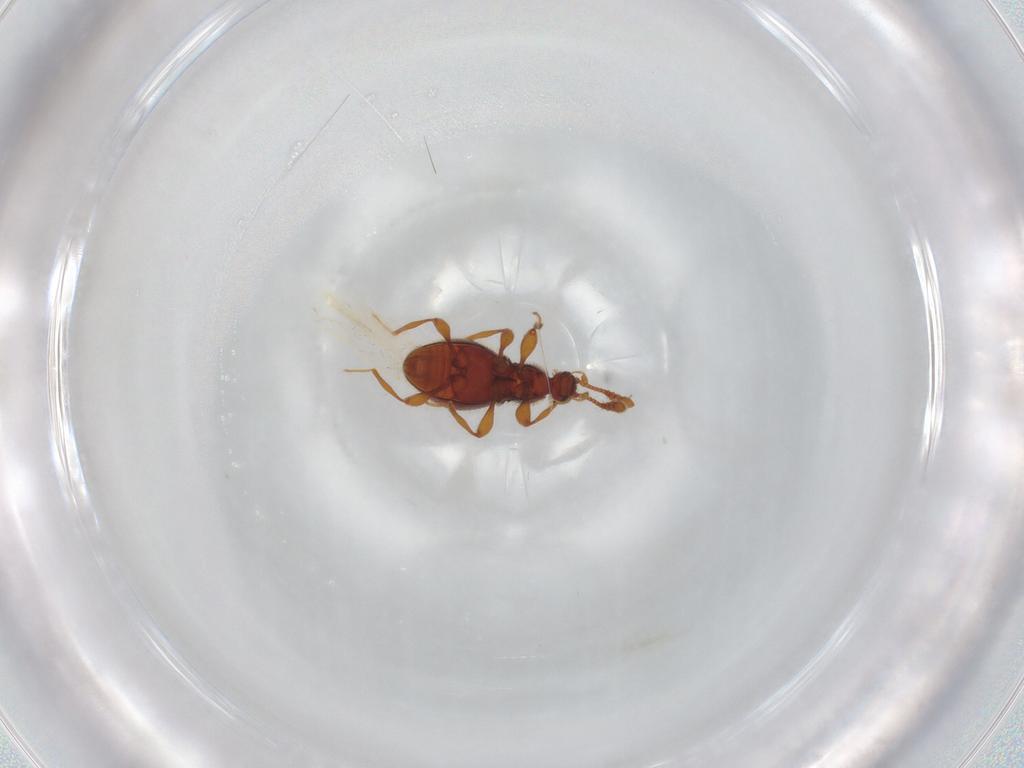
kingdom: Animalia
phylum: Arthropoda
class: Insecta
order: Coleoptera
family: Staphylinidae
